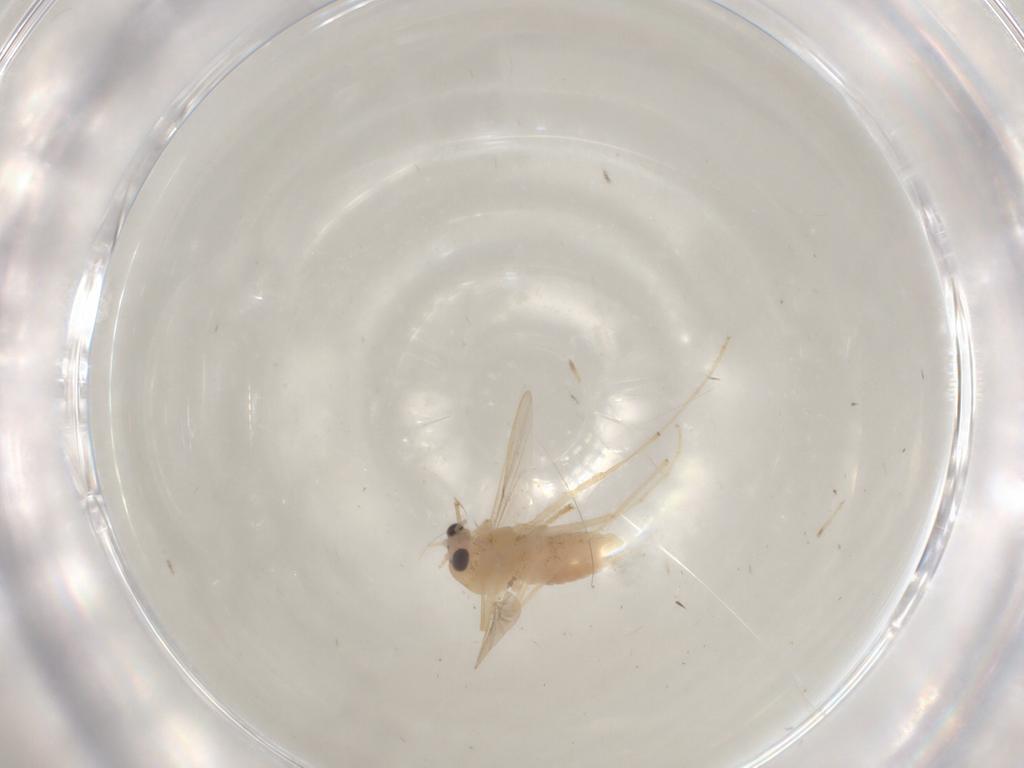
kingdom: Animalia
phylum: Arthropoda
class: Insecta
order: Diptera
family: Chironomidae
